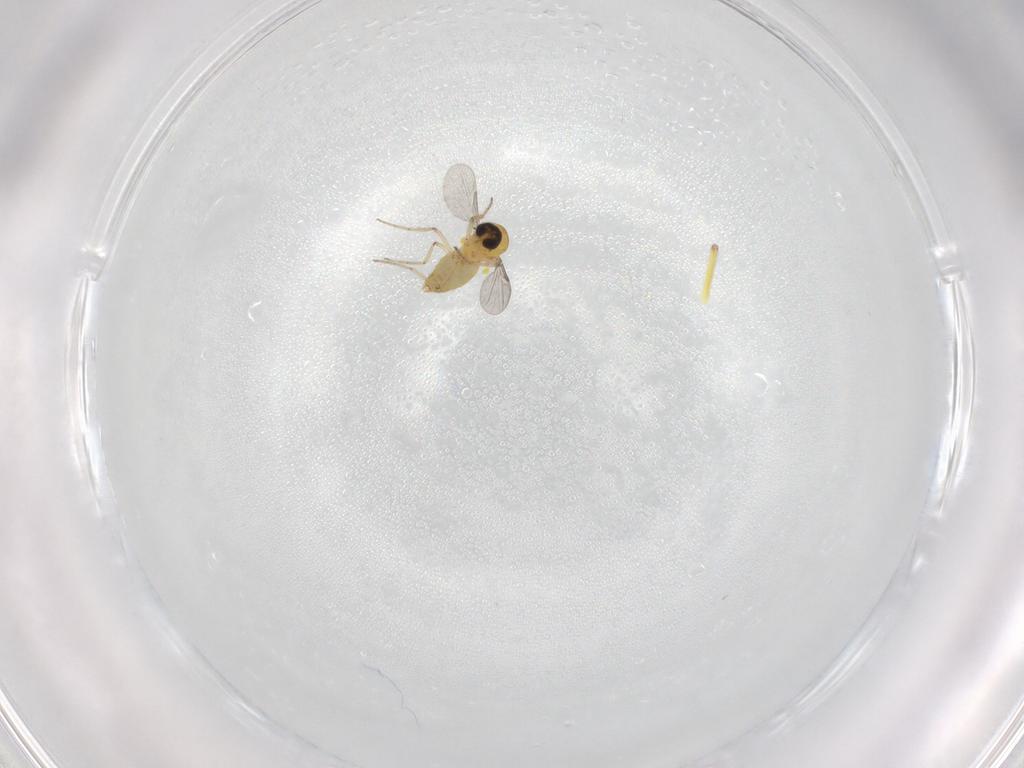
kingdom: Animalia
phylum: Arthropoda
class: Insecta
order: Diptera
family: Ceratopogonidae
